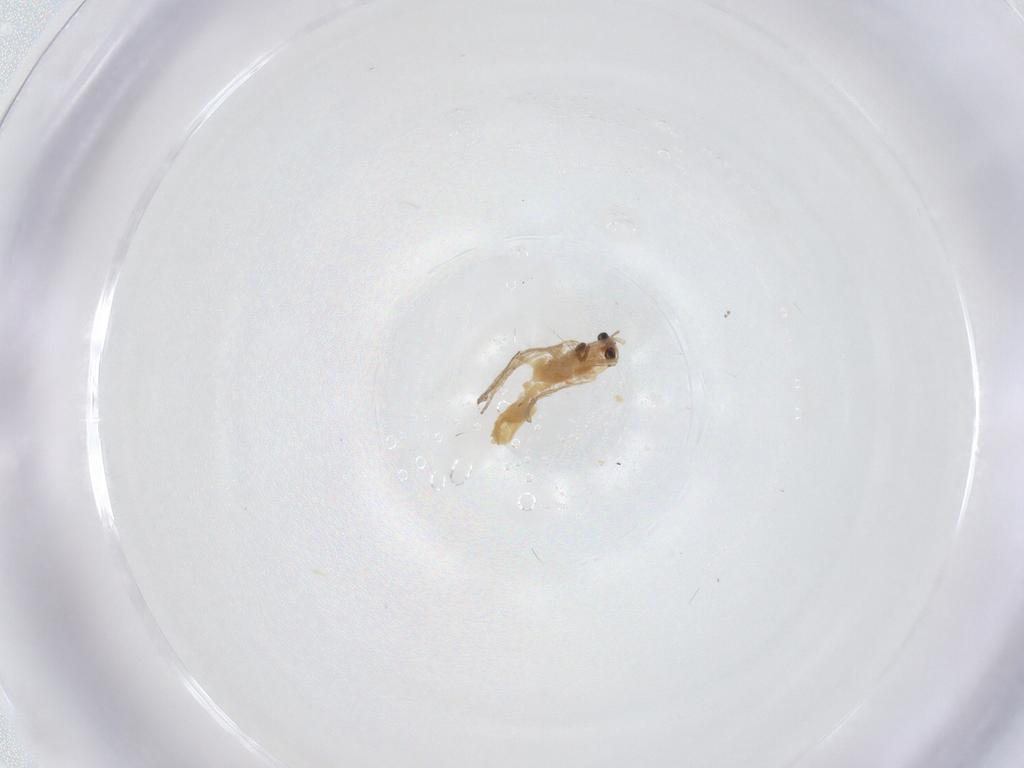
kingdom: Animalia
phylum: Arthropoda
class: Insecta
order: Diptera
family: Chironomidae
